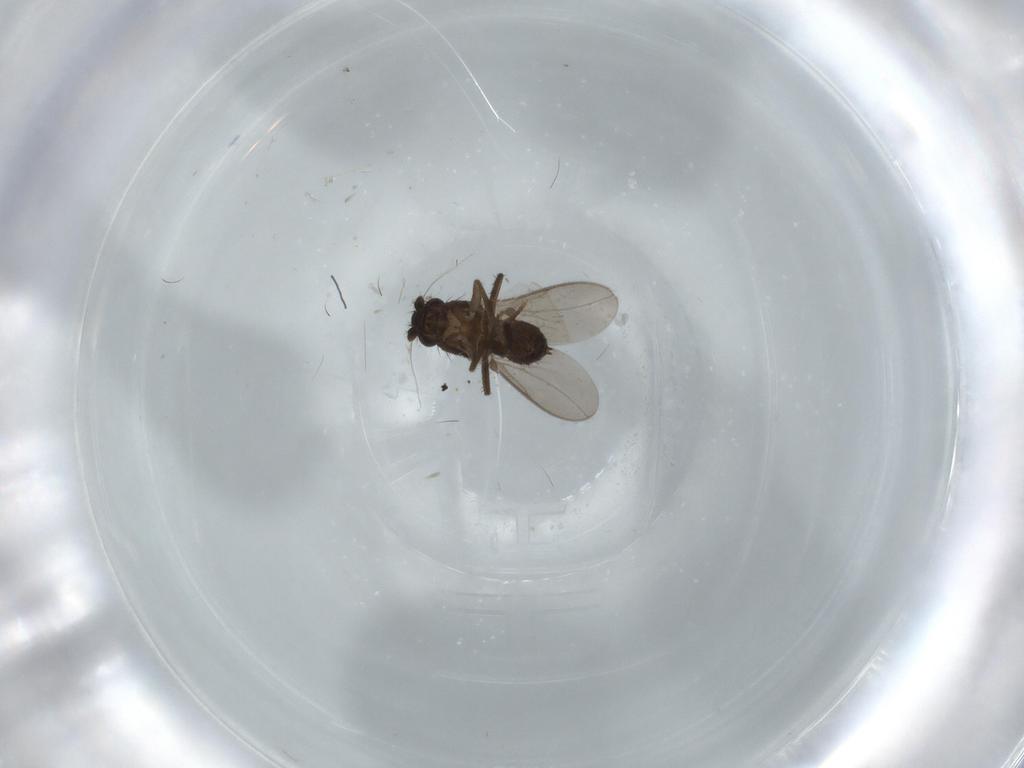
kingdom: Animalia
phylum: Arthropoda
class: Insecta
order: Diptera
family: Sphaeroceridae
